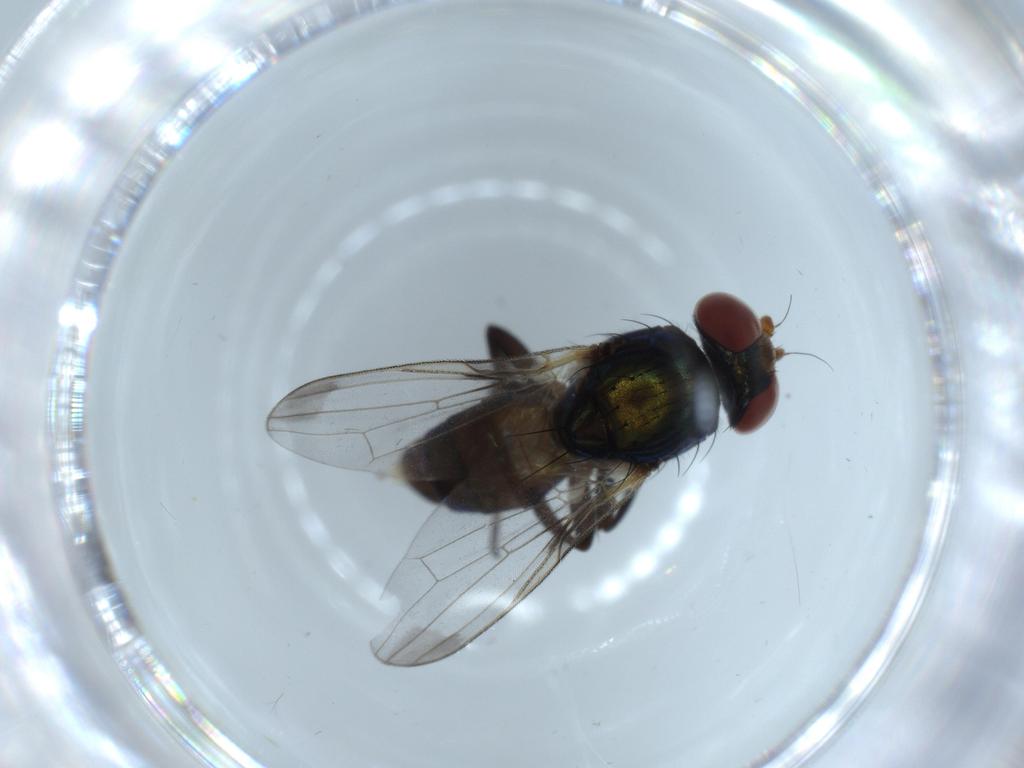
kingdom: Animalia
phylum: Arthropoda
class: Insecta
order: Diptera
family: Ulidiidae
